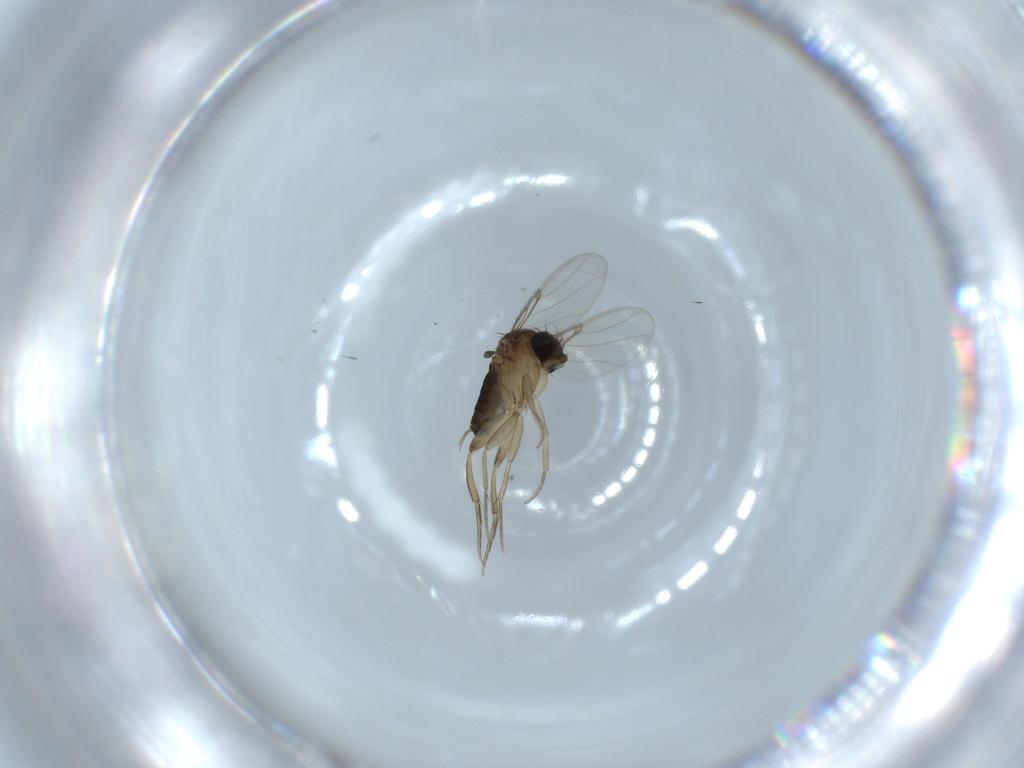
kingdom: Animalia
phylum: Arthropoda
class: Insecta
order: Diptera
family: Phoridae
